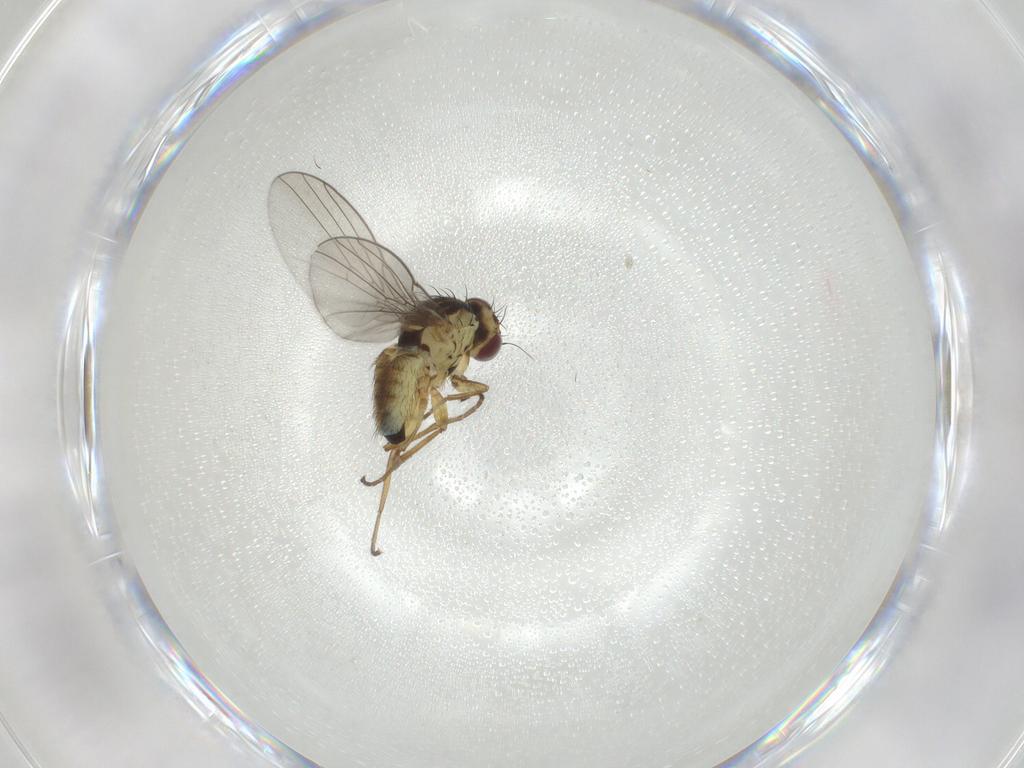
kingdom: Animalia
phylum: Arthropoda
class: Insecta
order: Diptera
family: Agromyzidae
